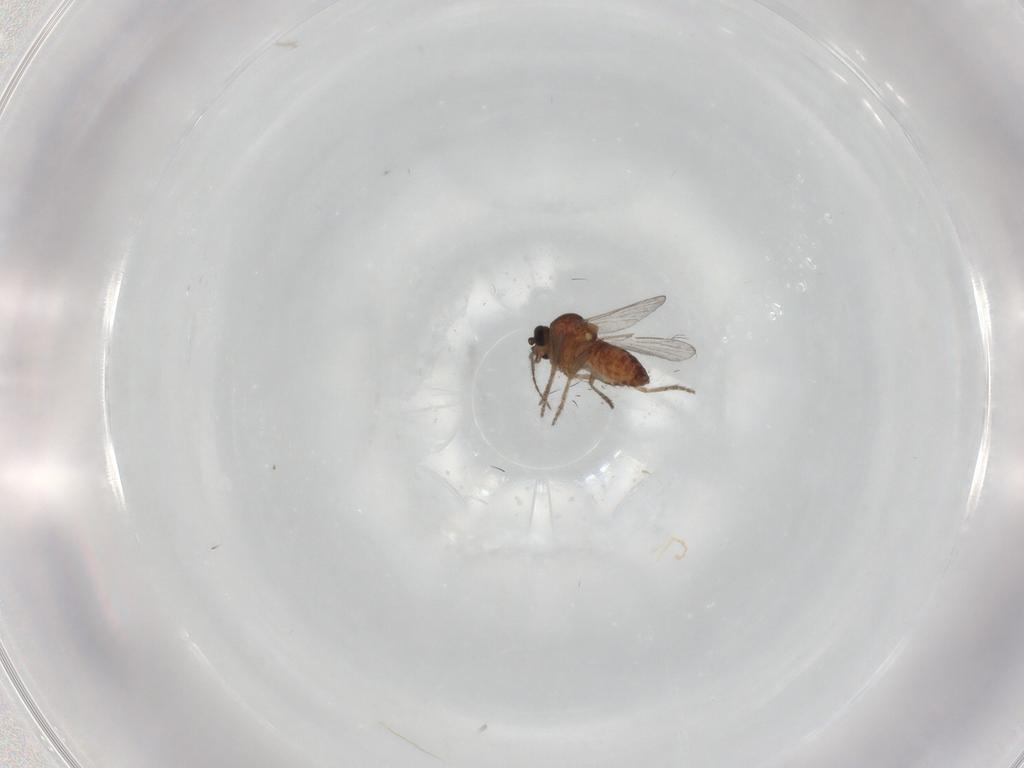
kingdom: Animalia
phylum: Arthropoda
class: Insecta
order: Diptera
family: Ceratopogonidae
